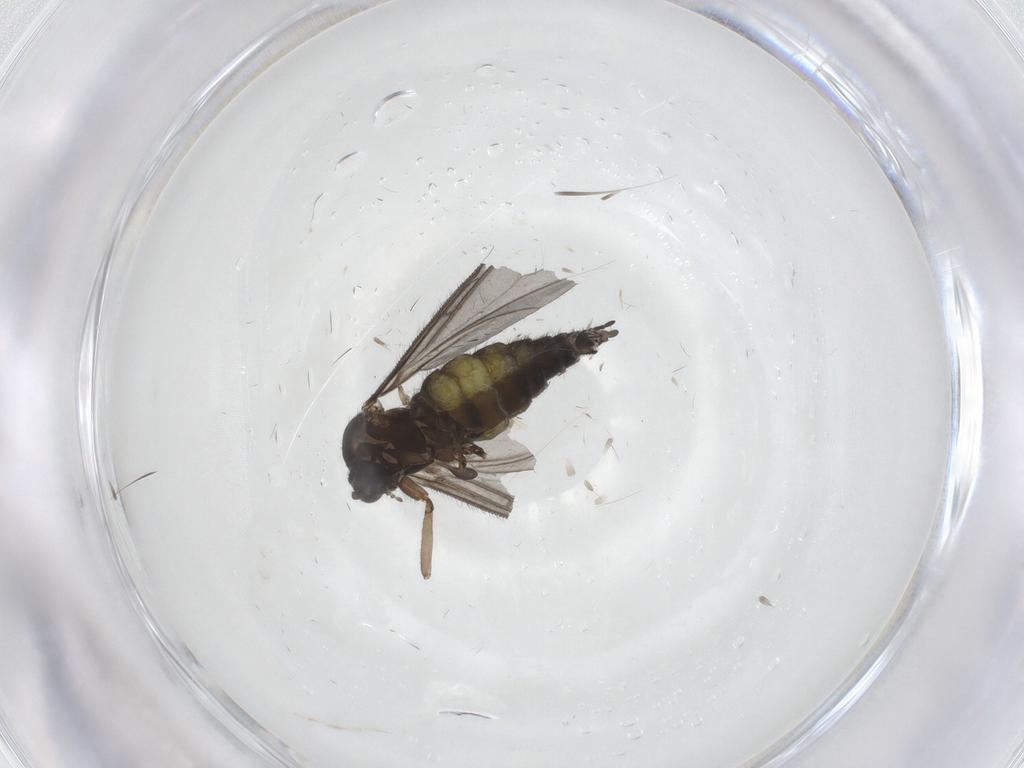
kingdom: Animalia
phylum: Arthropoda
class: Insecta
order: Diptera
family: Sciaridae
